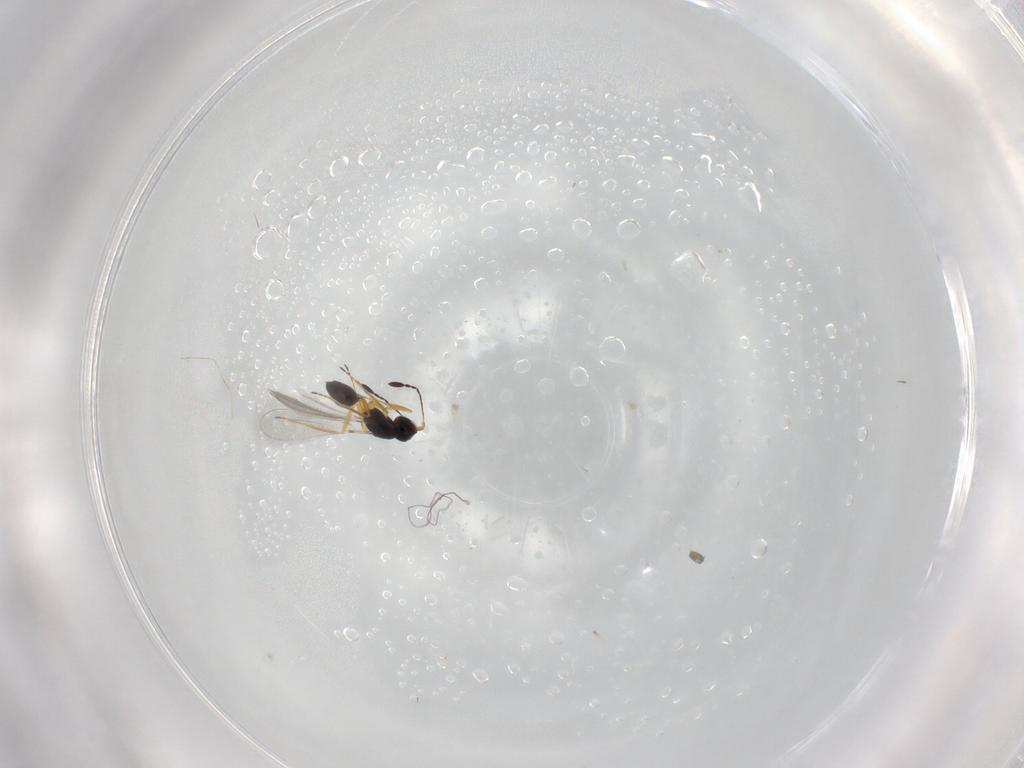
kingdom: Animalia
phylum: Arthropoda
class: Insecta
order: Hymenoptera
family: Mymaridae
